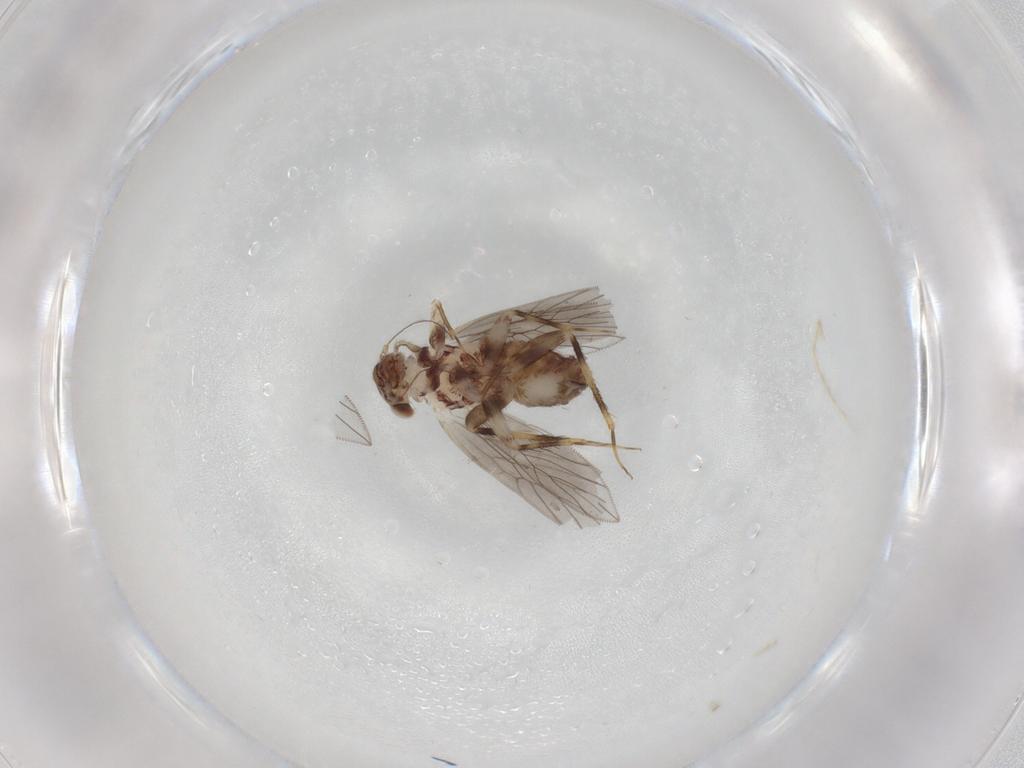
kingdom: Animalia
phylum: Arthropoda
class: Insecta
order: Psocodea
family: Lepidopsocidae
